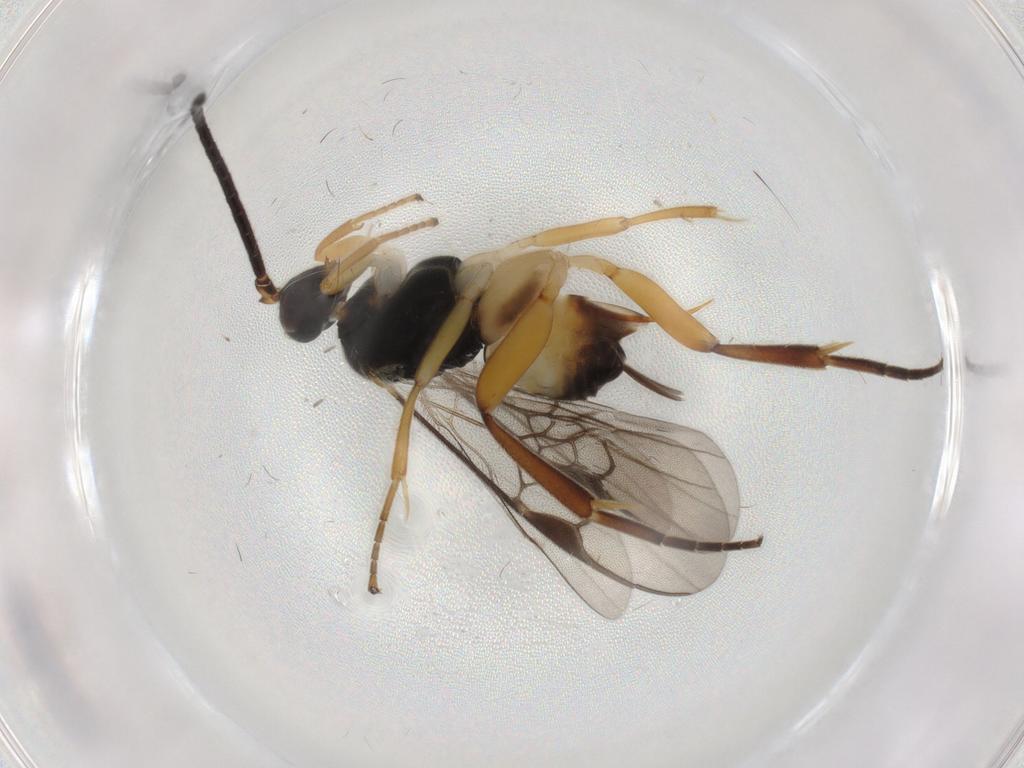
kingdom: Animalia
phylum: Arthropoda
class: Insecta
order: Hymenoptera
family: Braconidae
